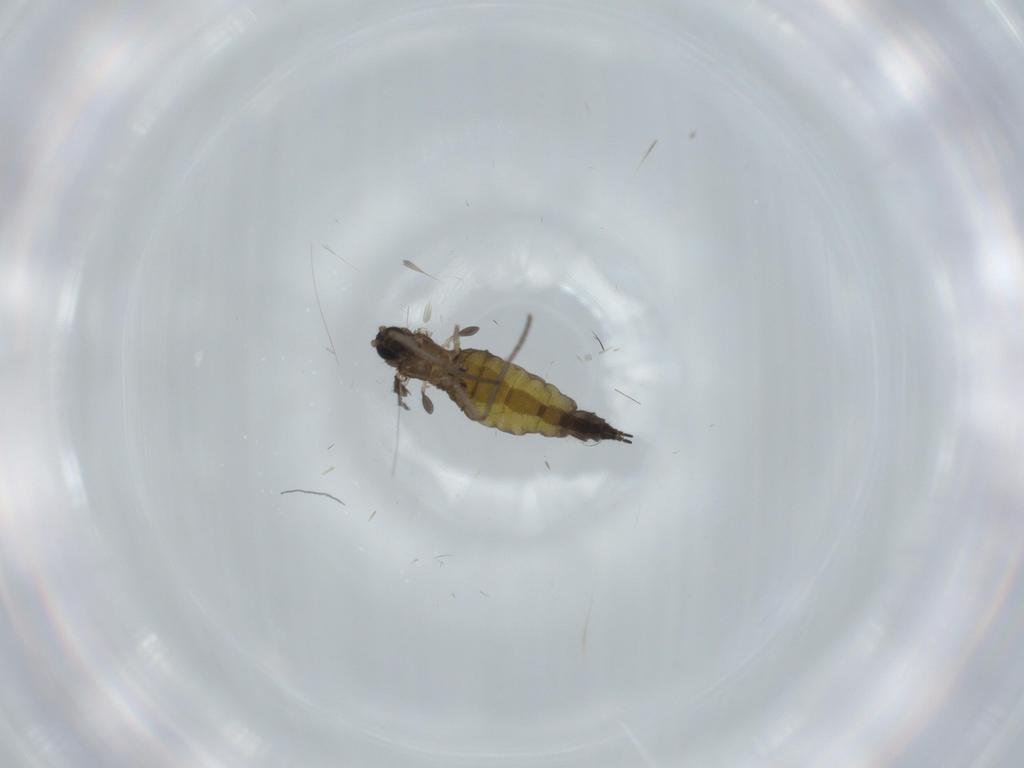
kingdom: Animalia
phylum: Arthropoda
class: Insecta
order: Diptera
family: Sciaridae
